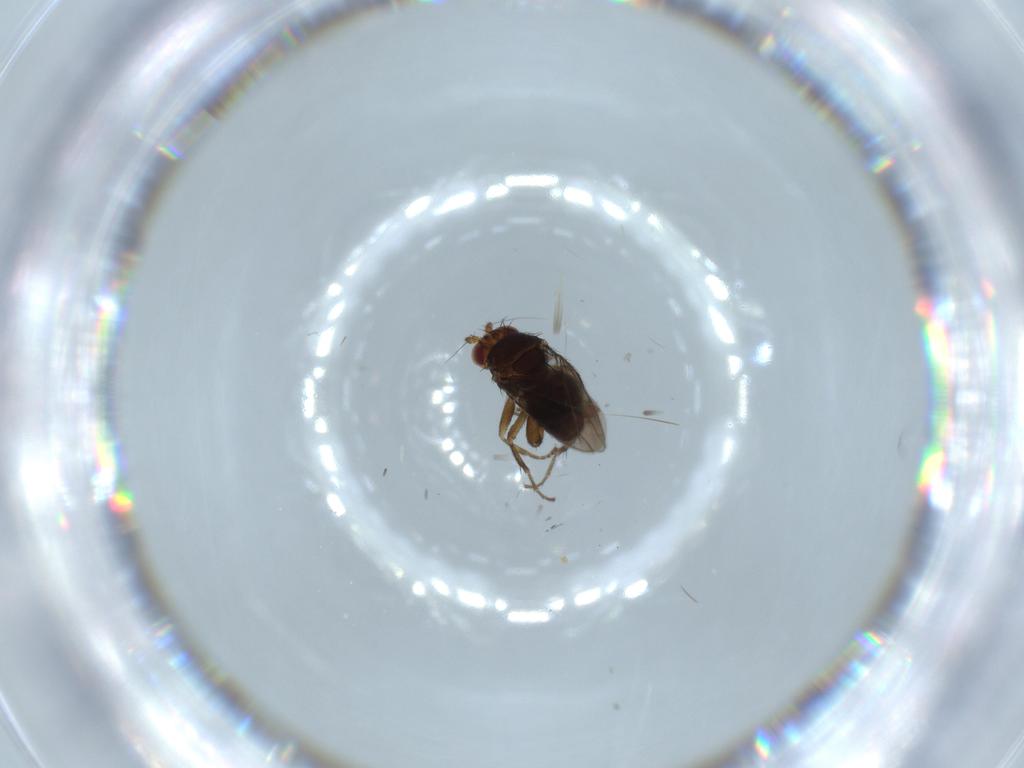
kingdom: Animalia
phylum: Arthropoda
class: Insecta
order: Diptera
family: Sphaeroceridae
